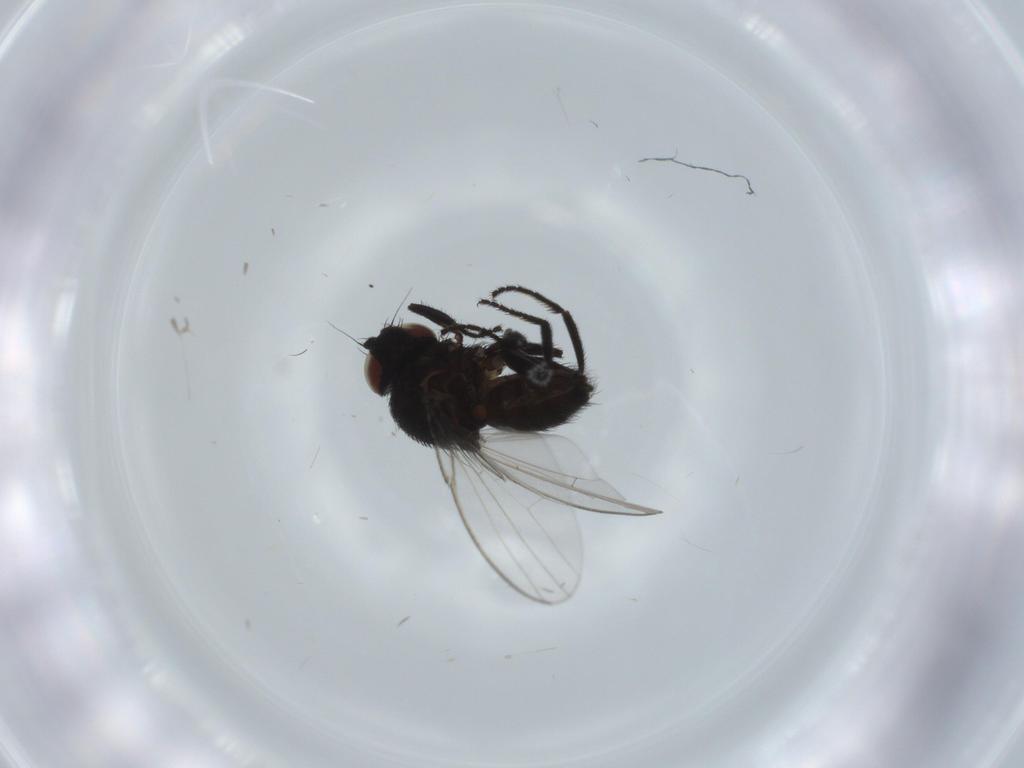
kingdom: Animalia
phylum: Arthropoda
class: Insecta
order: Diptera
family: Milichiidae
